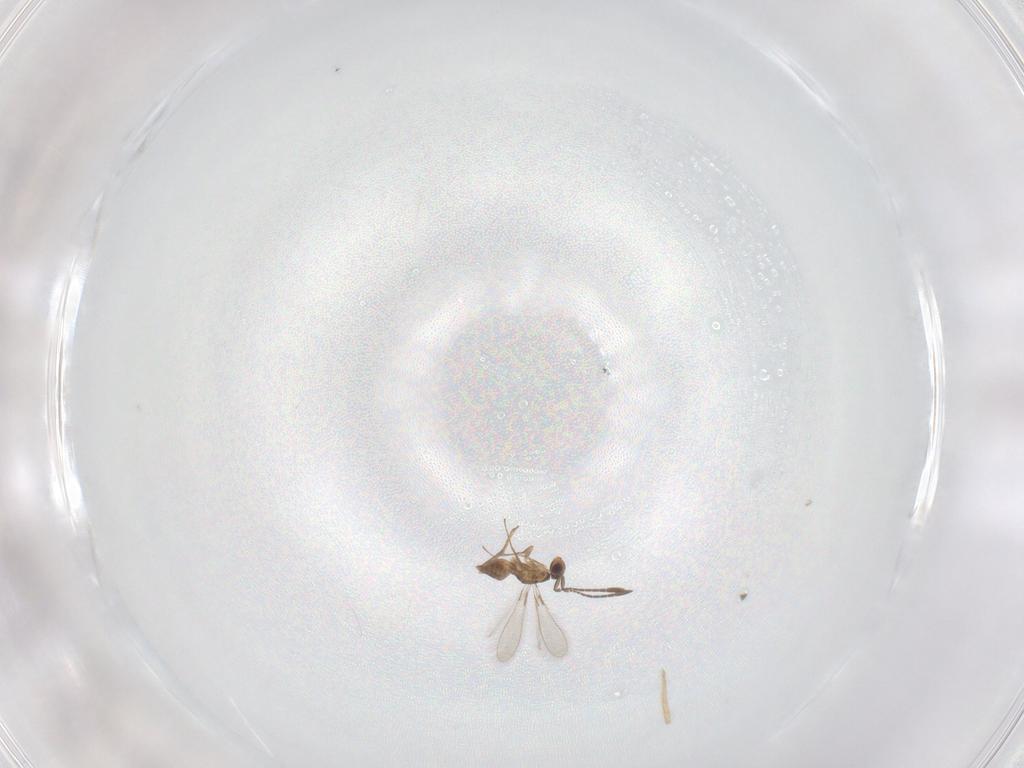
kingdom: Animalia
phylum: Arthropoda
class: Insecta
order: Hymenoptera
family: Mymaridae
